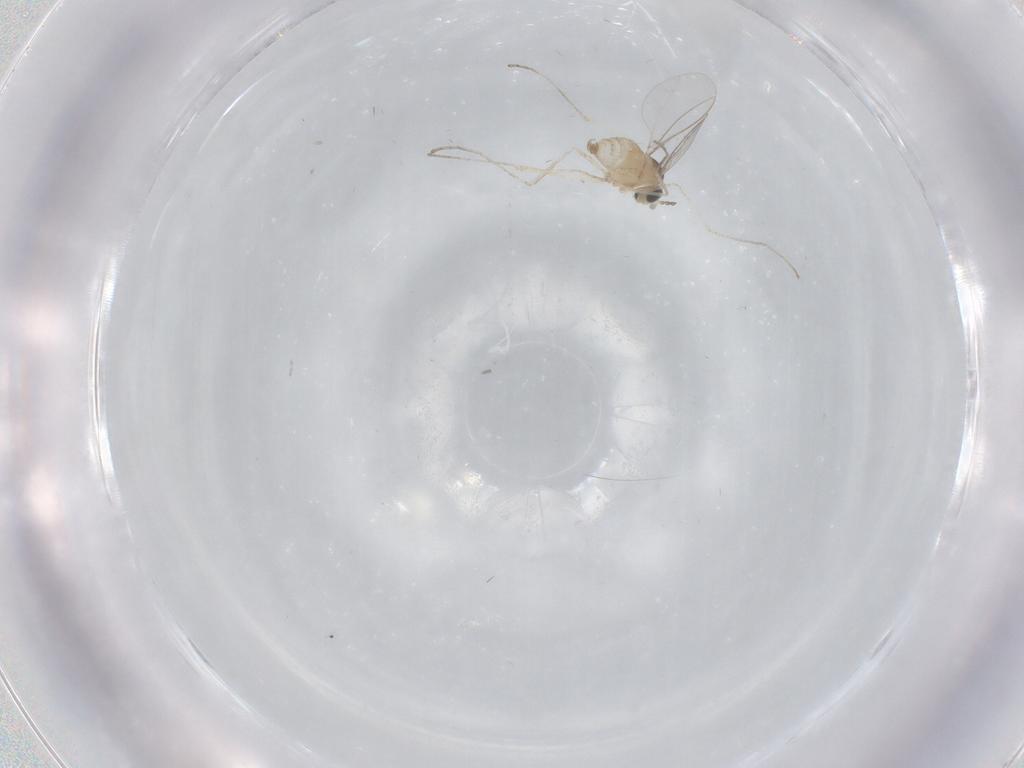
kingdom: Animalia
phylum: Arthropoda
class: Insecta
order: Diptera
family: Cecidomyiidae
